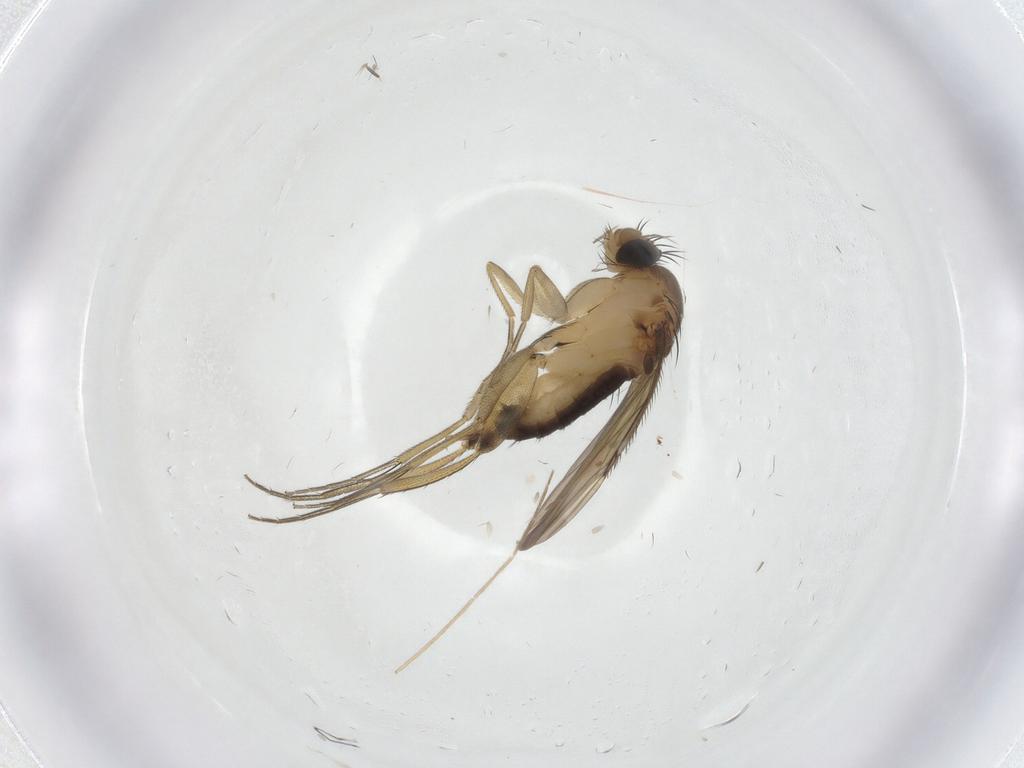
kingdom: Animalia
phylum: Arthropoda
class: Insecta
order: Diptera
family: Phoridae
